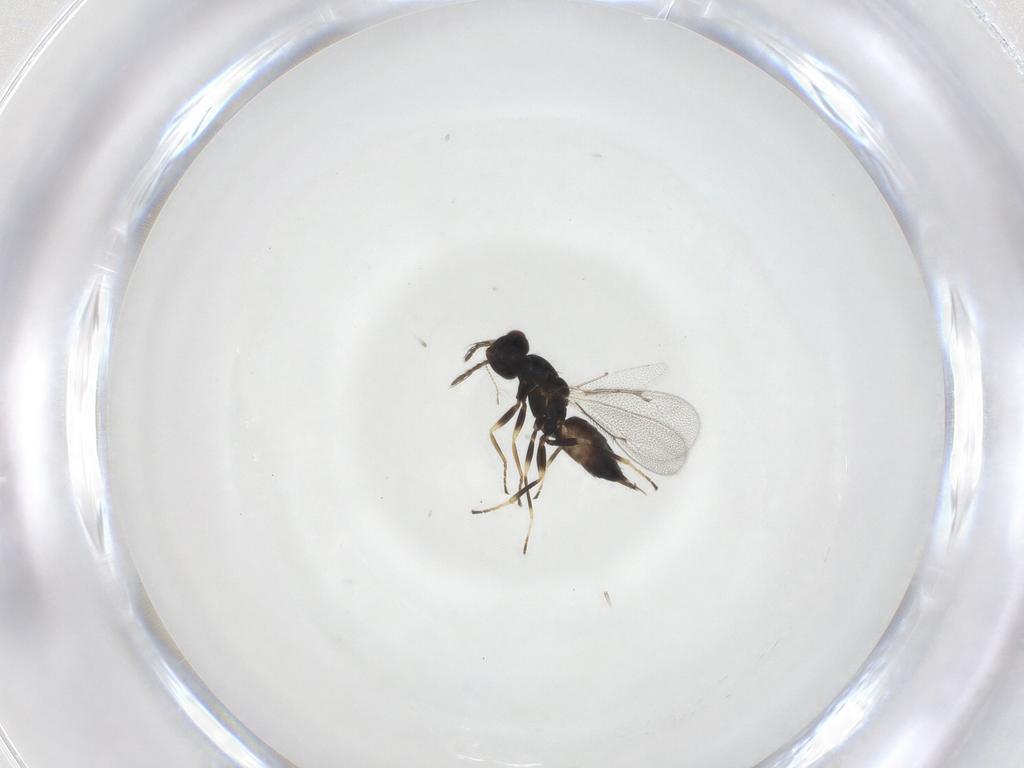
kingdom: Animalia
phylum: Arthropoda
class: Insecta
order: Hymenoptera
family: Eulophidae
